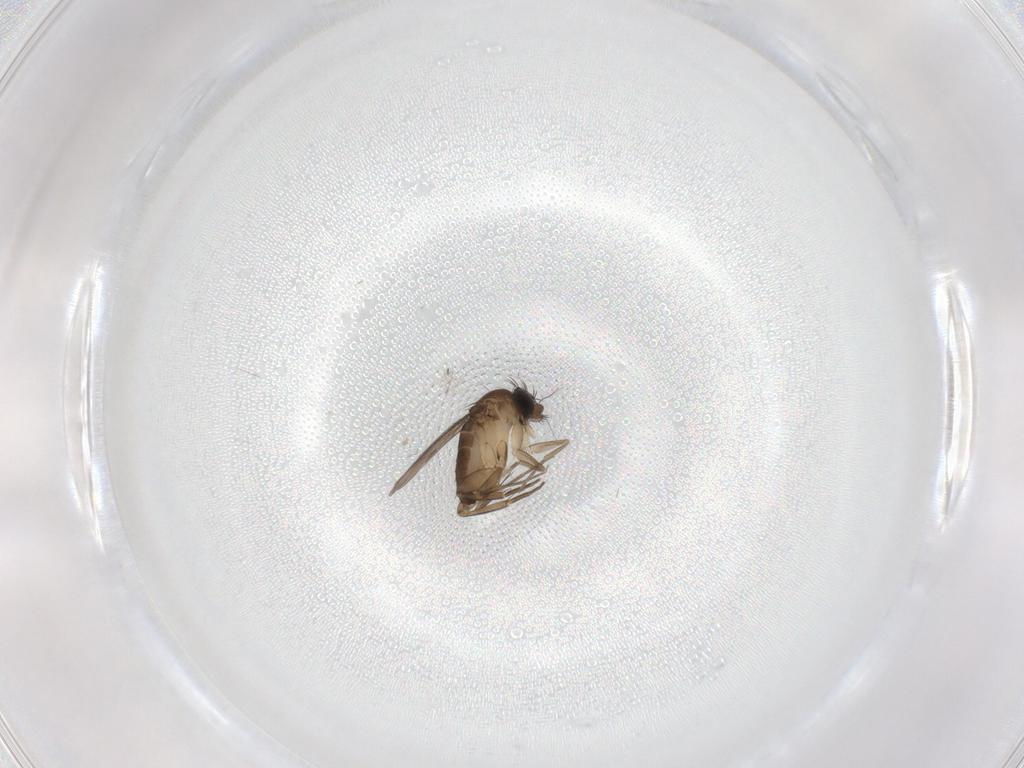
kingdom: Animalia
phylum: Arthropoda
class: Insecta
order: Diptera
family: Phoridae
